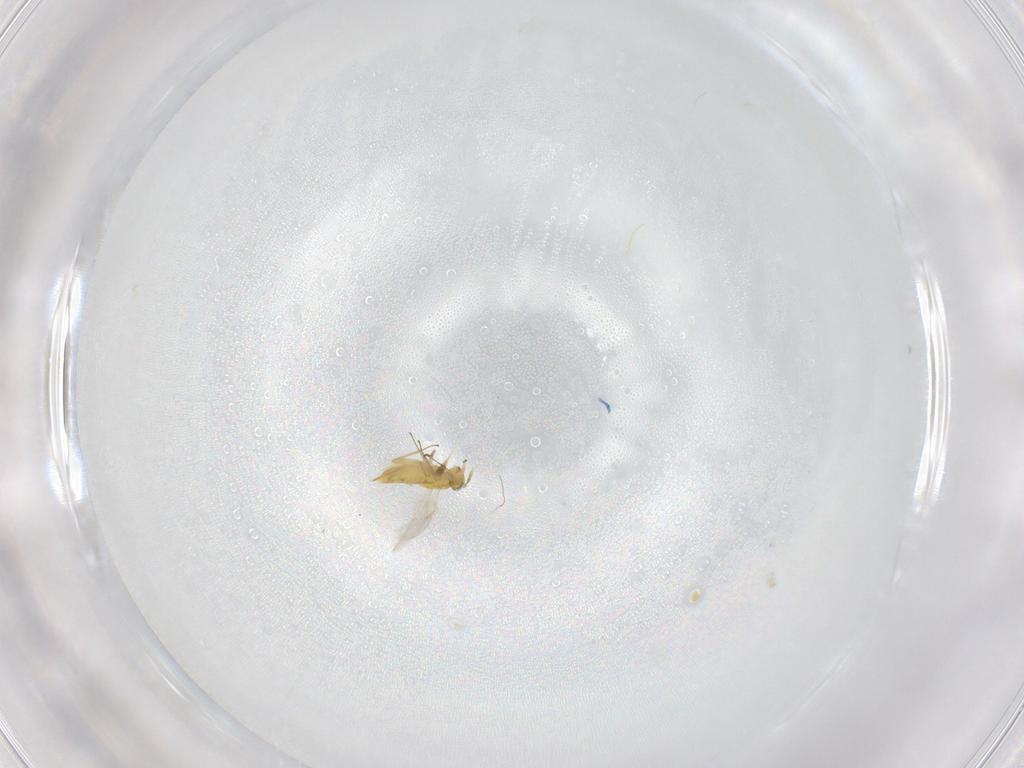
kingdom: Animalia
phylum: Arthropoda
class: Insecta
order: Hymenoptera
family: Aphelinidae
